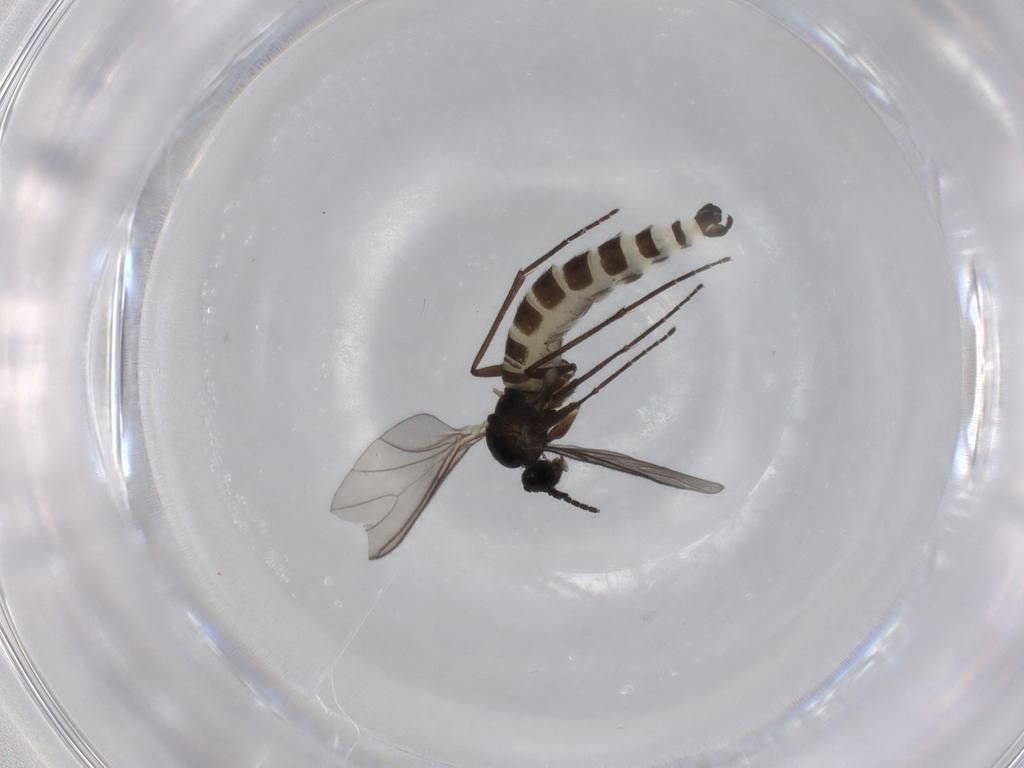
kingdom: Animalia
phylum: Arthropoda
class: Insecta
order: Diptera
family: Sciaridae
